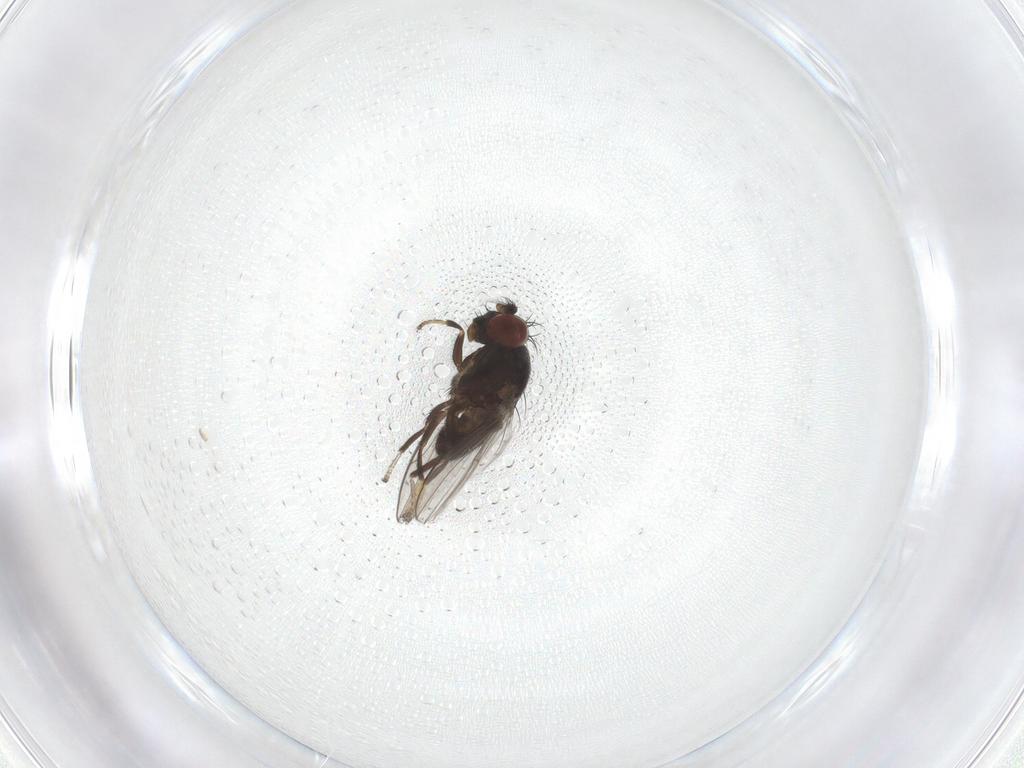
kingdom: Animalia
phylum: Arthropoda
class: Insecta
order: Diptera
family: Ephydridae
